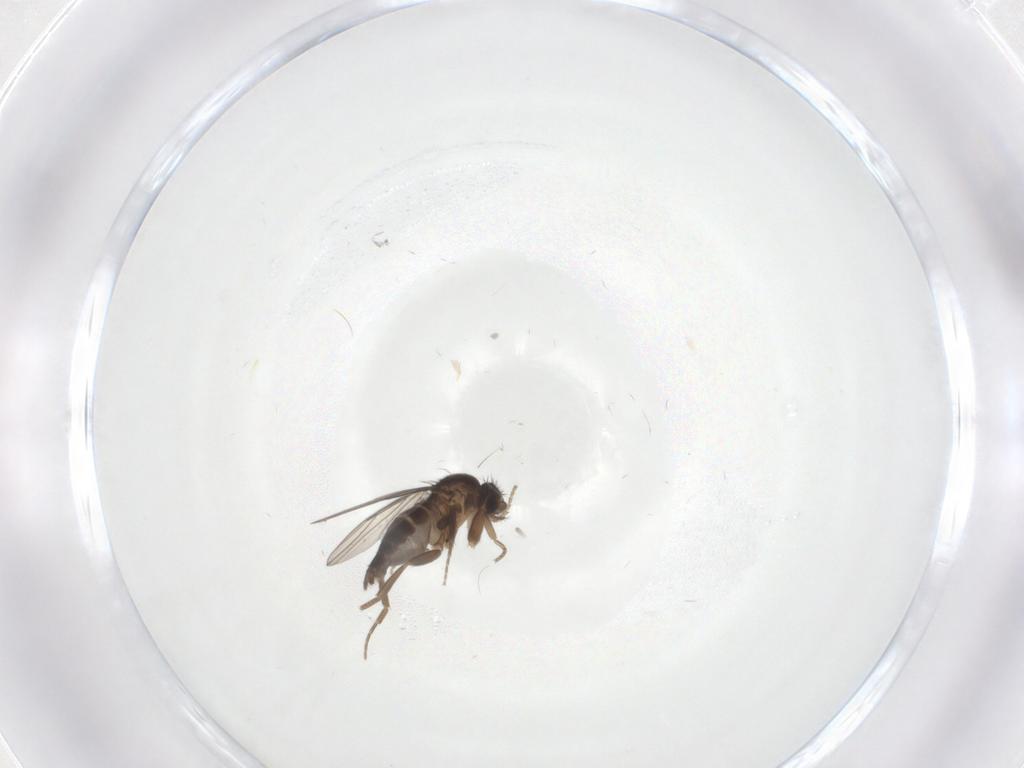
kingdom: Animalia
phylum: Arthropoda
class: Insecta
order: Diptera
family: Phoridae
